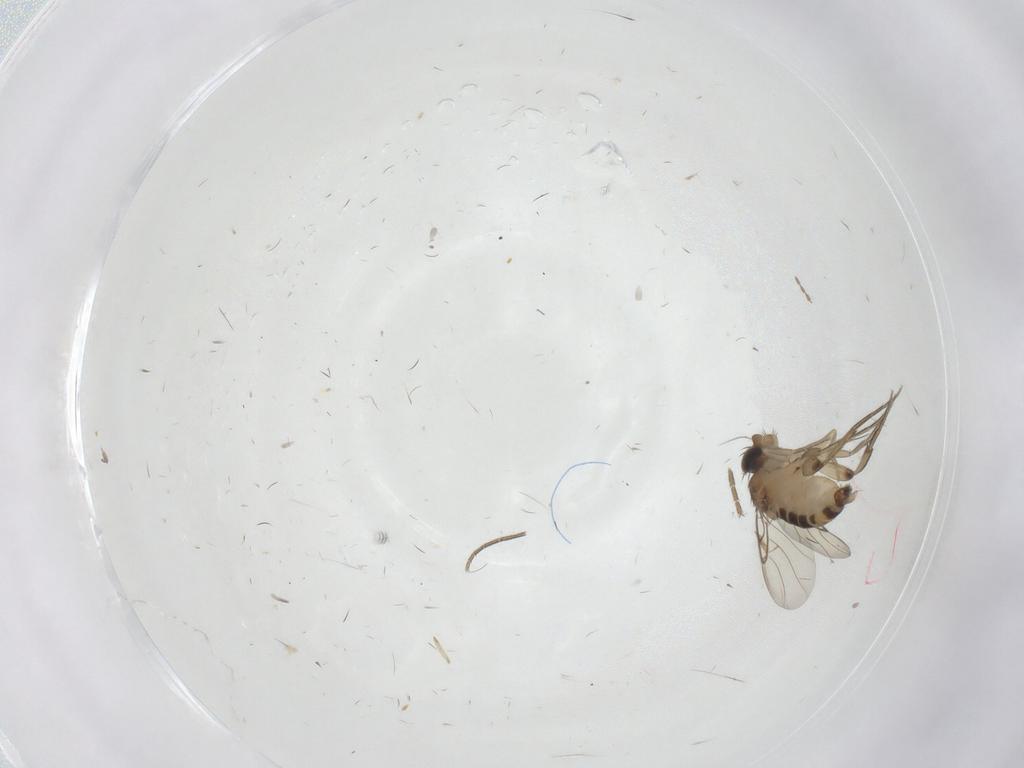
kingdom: Animalia
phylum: Arthropoda
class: Insecta
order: Diptera
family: Phoridae
